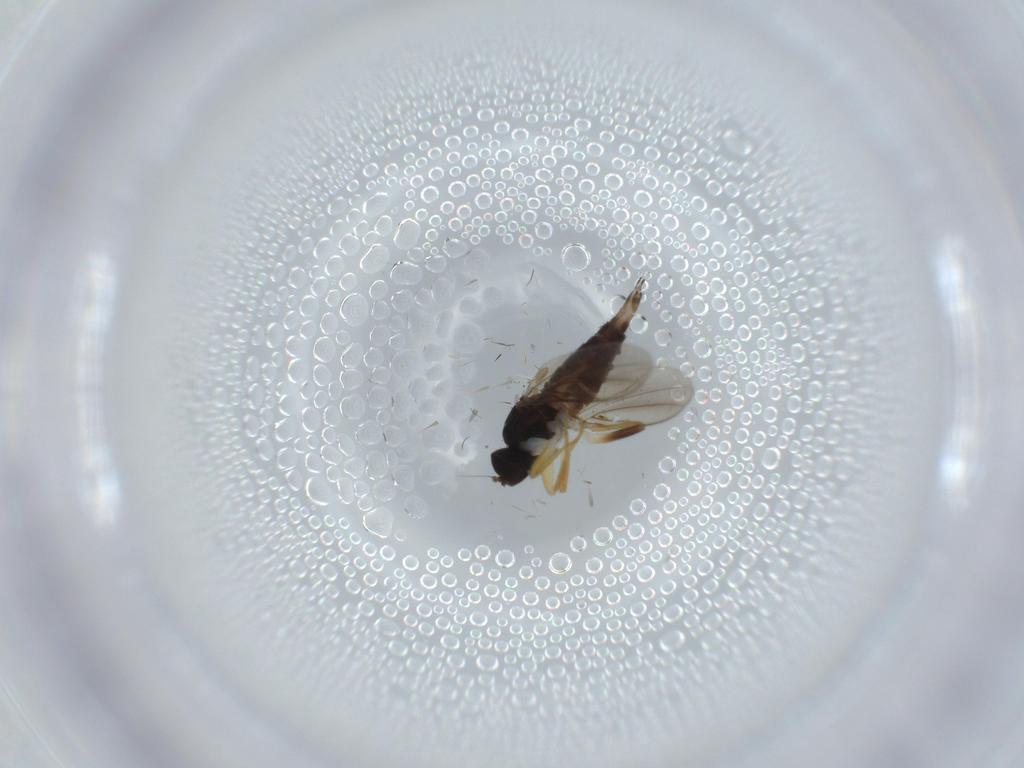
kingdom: Animalia
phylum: Arthropoda
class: Insecta
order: Diptera
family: Hybotidae
